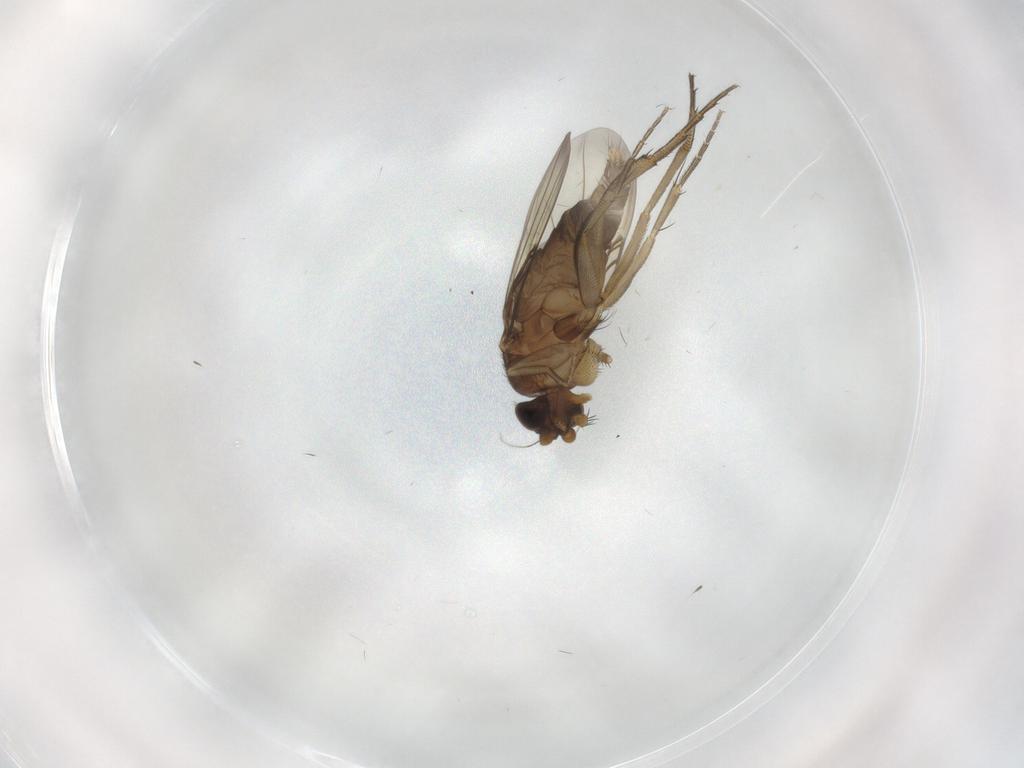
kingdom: Animalia
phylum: Arthropoda
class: Insecta
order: Diptera
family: Phoridae
